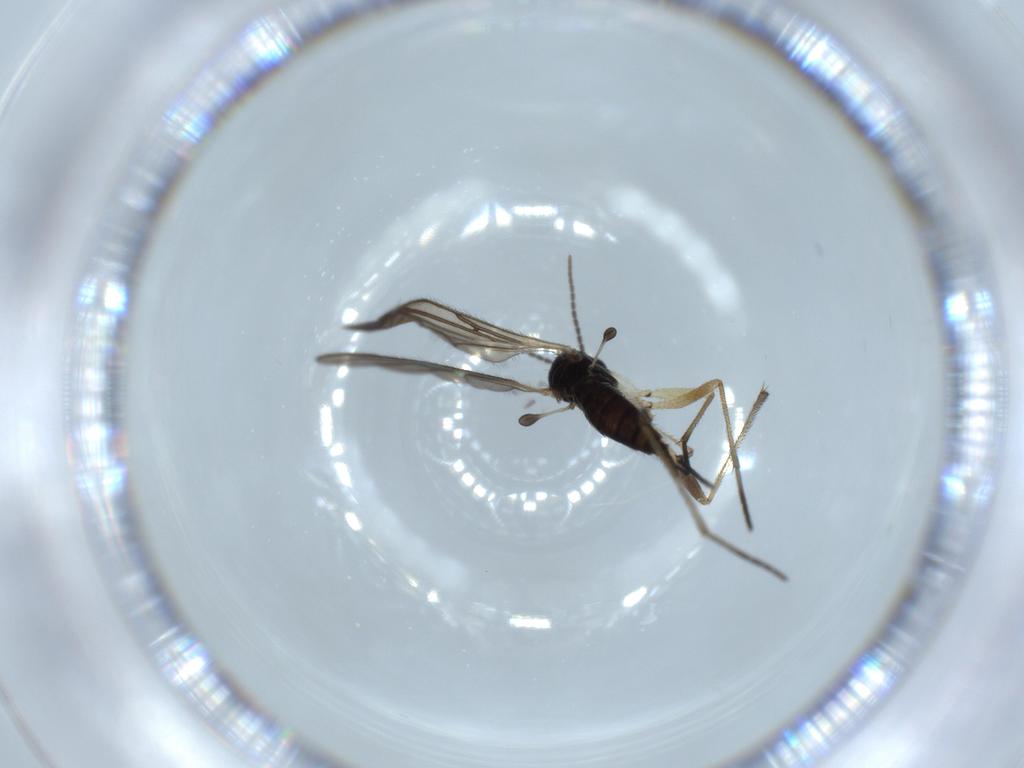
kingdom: Animalia
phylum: Arthropoda
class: Insecta
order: Diptera
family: Sciaridae
